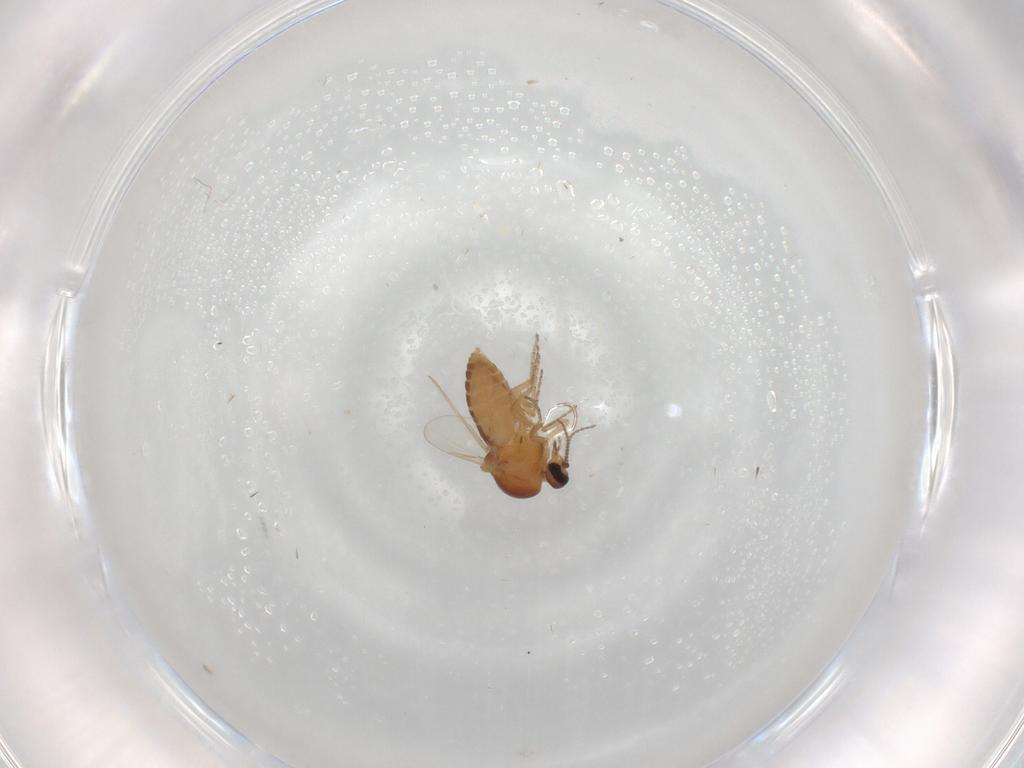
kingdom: Animalia
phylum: Arthropoda
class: Insecta
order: Diptera
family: Ceratopogonidae
